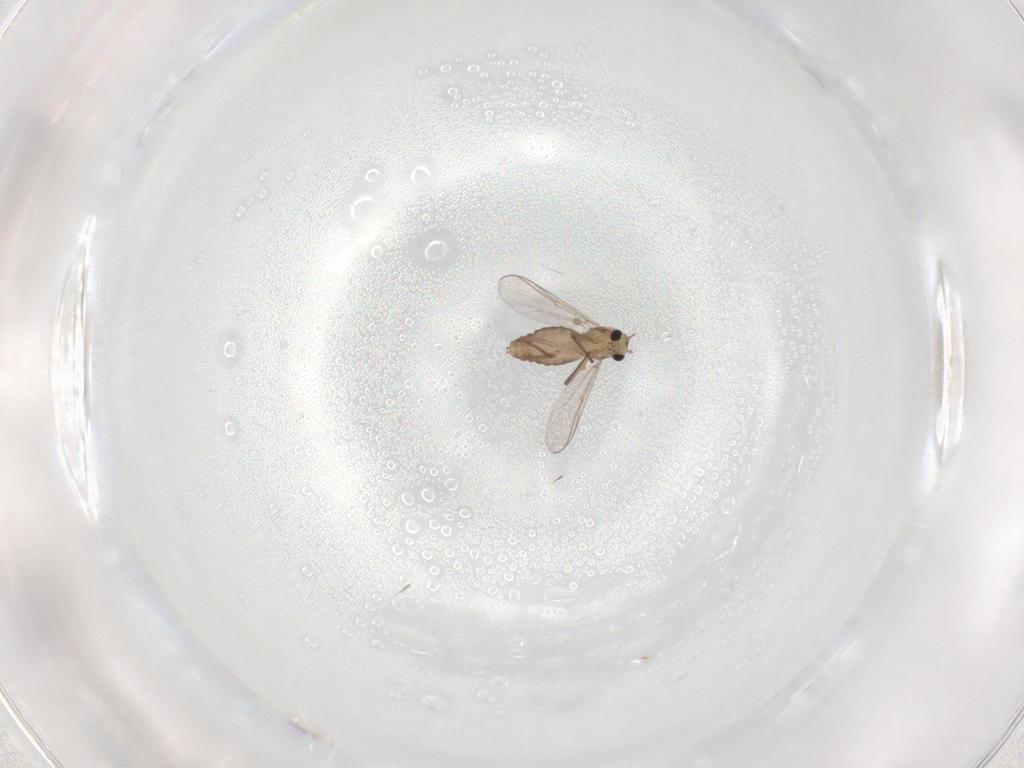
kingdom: Animalia
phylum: Arthropoda
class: Insecta
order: Diptera
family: Chironomidae
